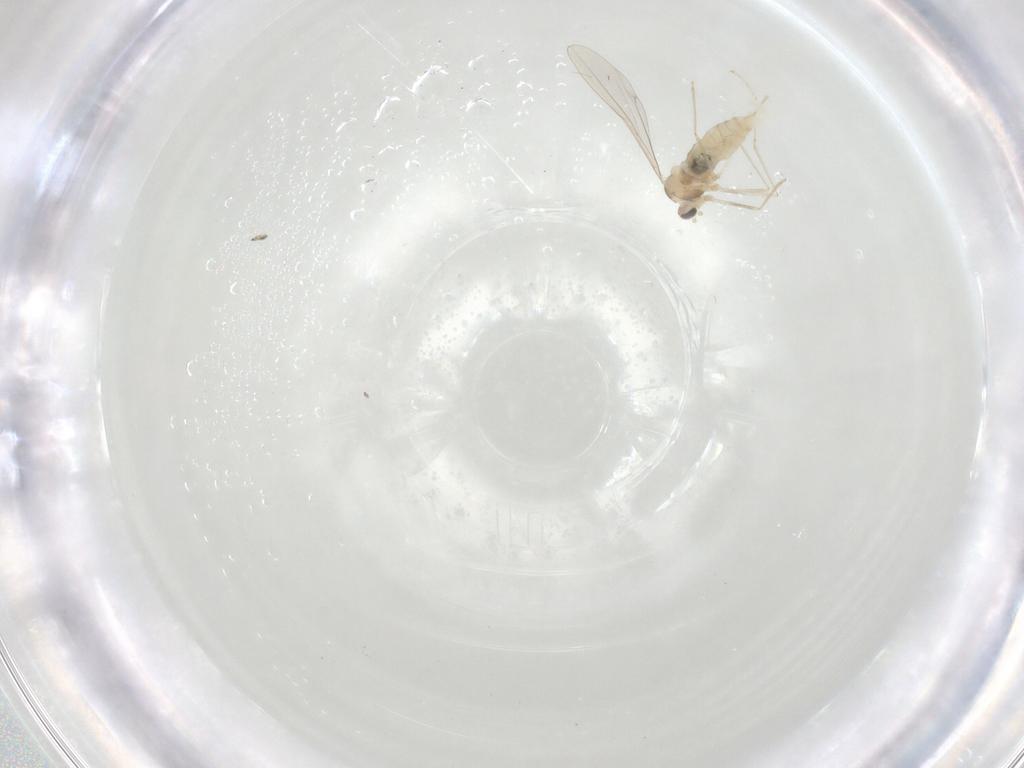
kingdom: Animalia
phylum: Arthropoda
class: Insecta
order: Diptera
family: Cecidomyiidae
